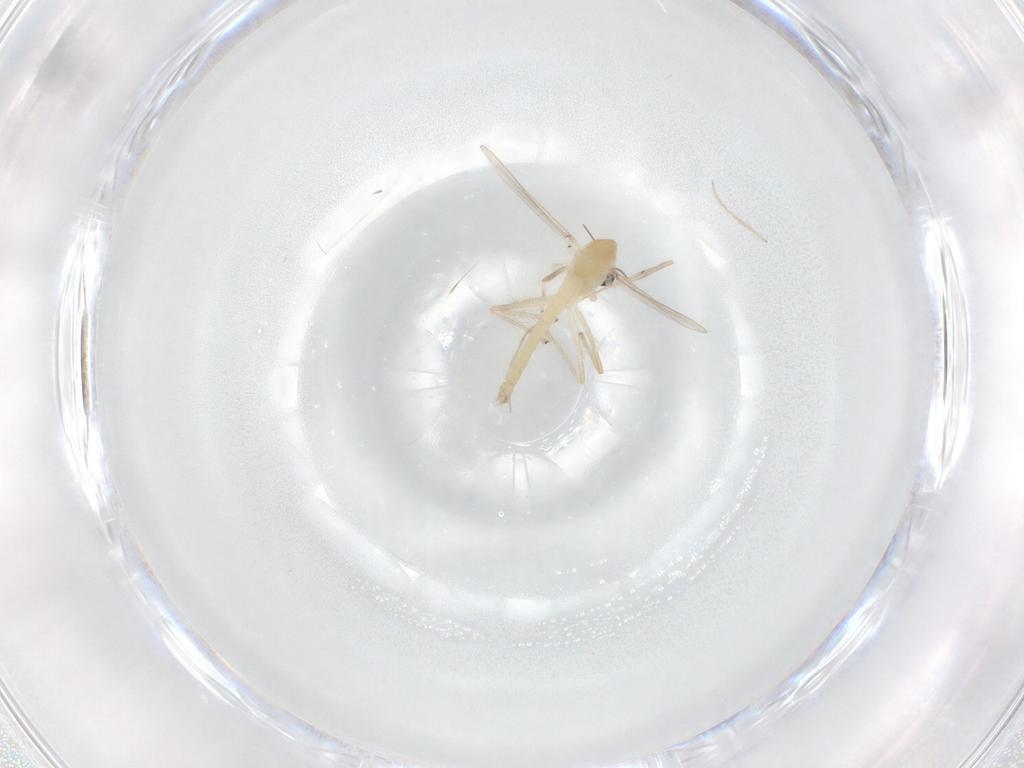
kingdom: Animalia
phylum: Arthropoda
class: Insecta
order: Diptera
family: Chironomidae
